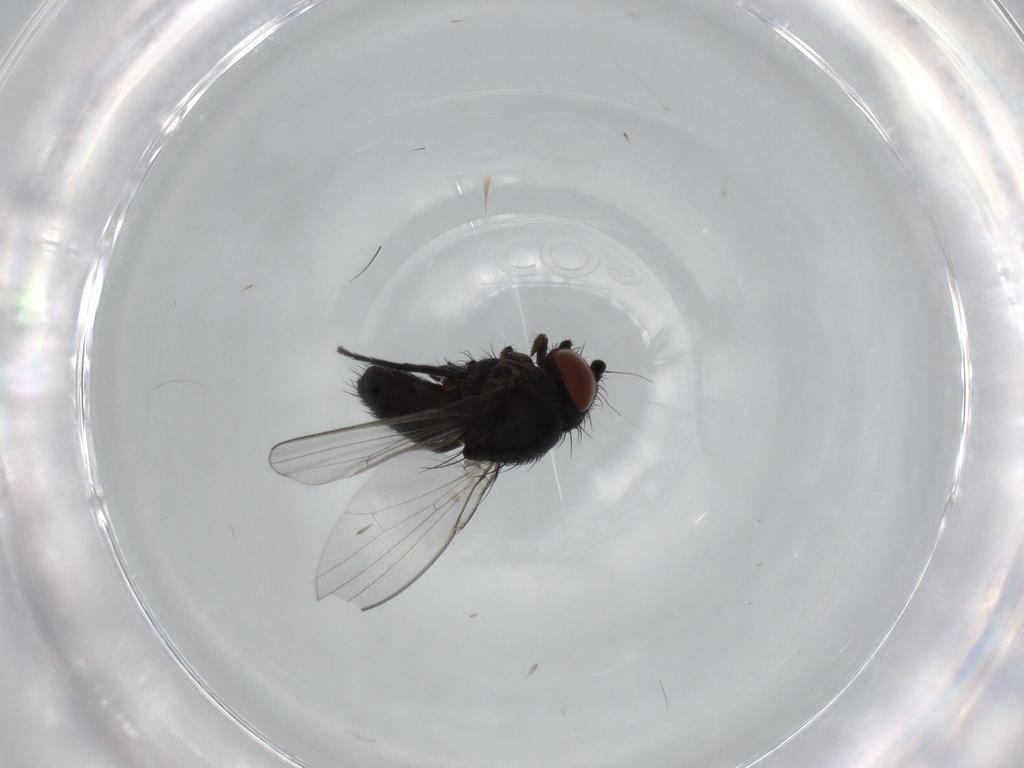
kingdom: Animalia
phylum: Arthropoda
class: Insecta
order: Diptera
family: Milichiidae
